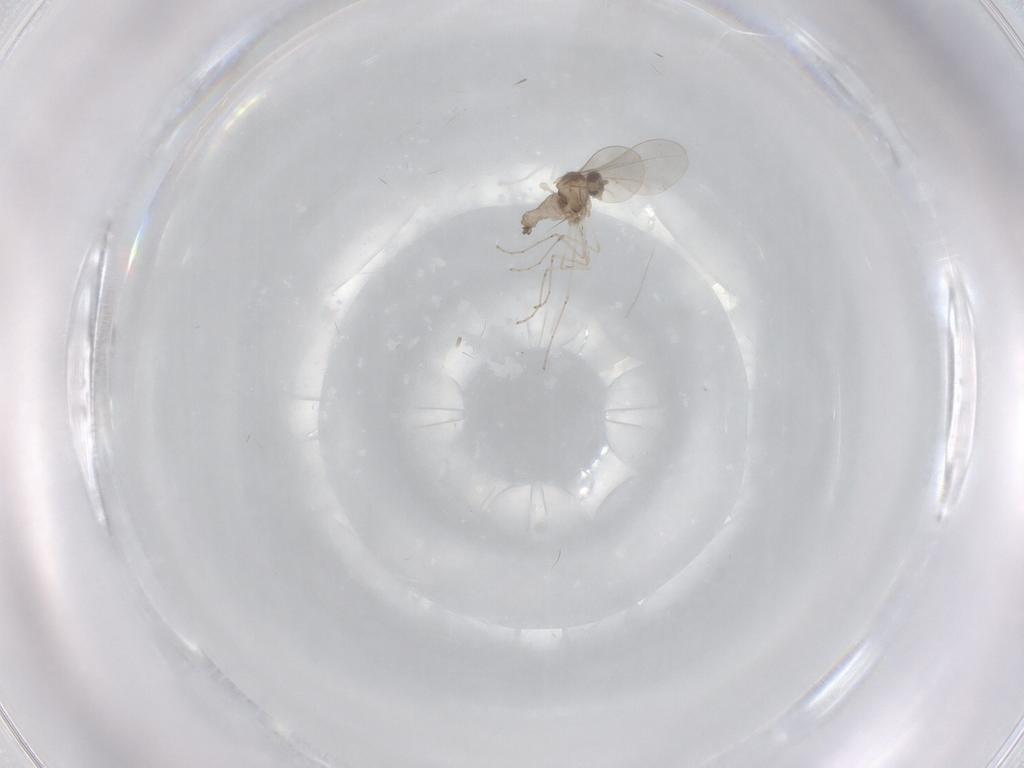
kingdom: Animalia
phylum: Arthropoda
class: Insecta
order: Diptera
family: Cecidomyiidae
